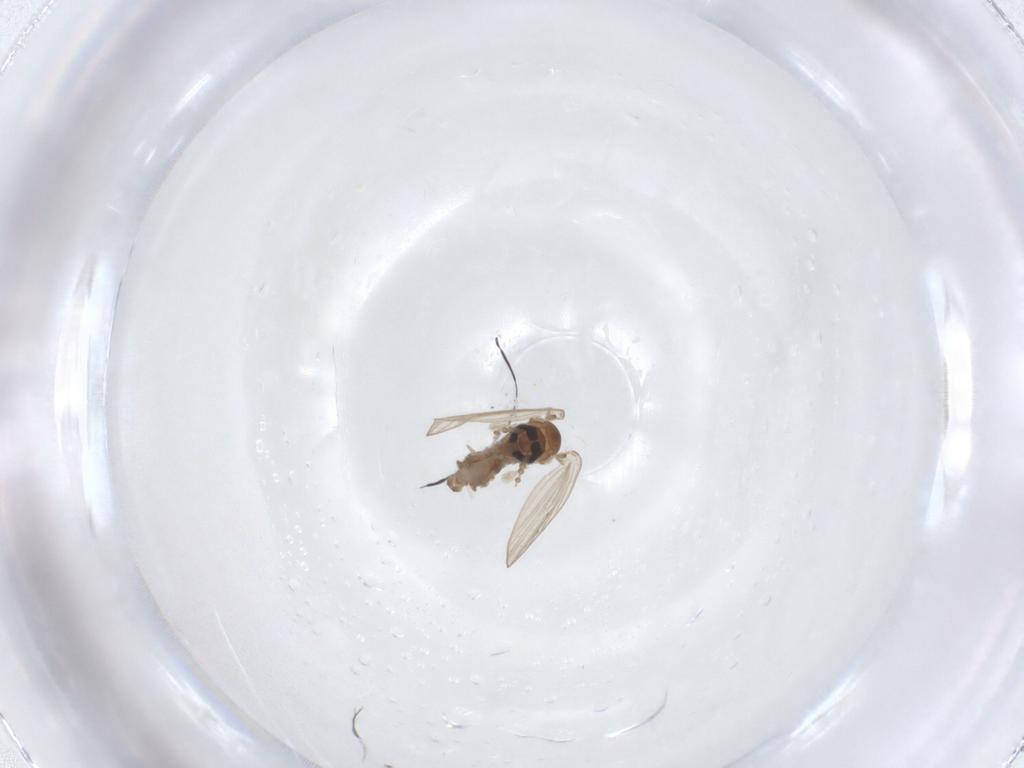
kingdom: Animalia
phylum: Arthropoda
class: Insecta
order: Diptera
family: Psychodidae
